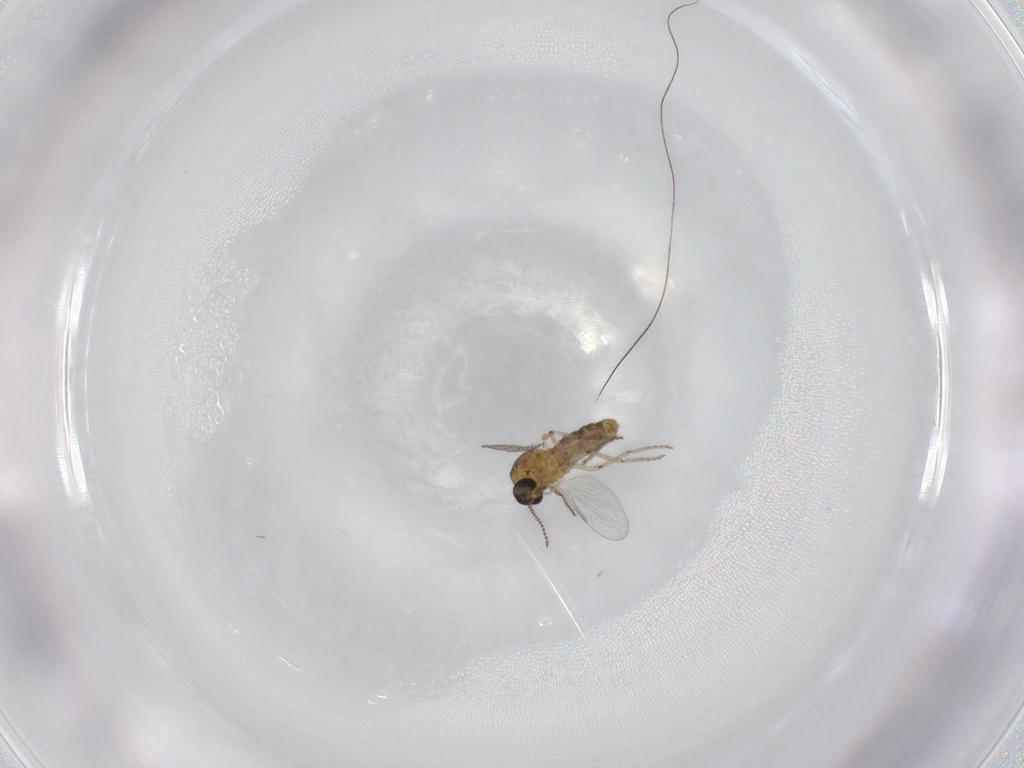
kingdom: Animalia
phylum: Arthropoda
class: Insecta
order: Diptera
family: Ceratopogonidae
